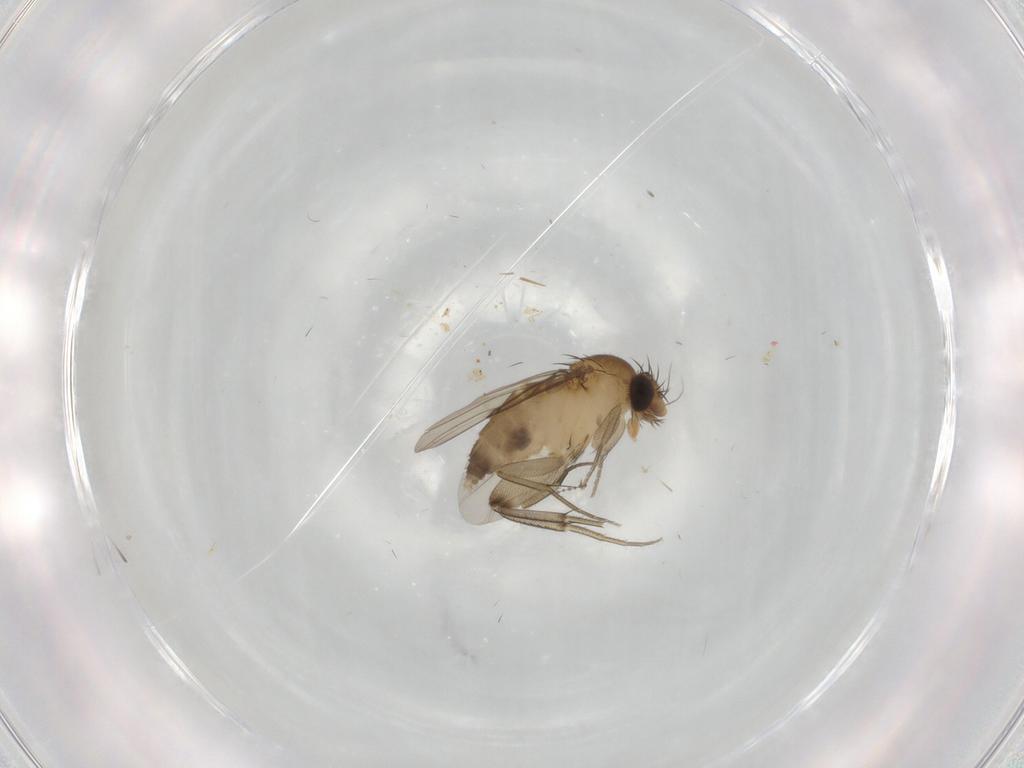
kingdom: Animalia
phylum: Arthropoda
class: Insecta
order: Diptera
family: Phoridae
